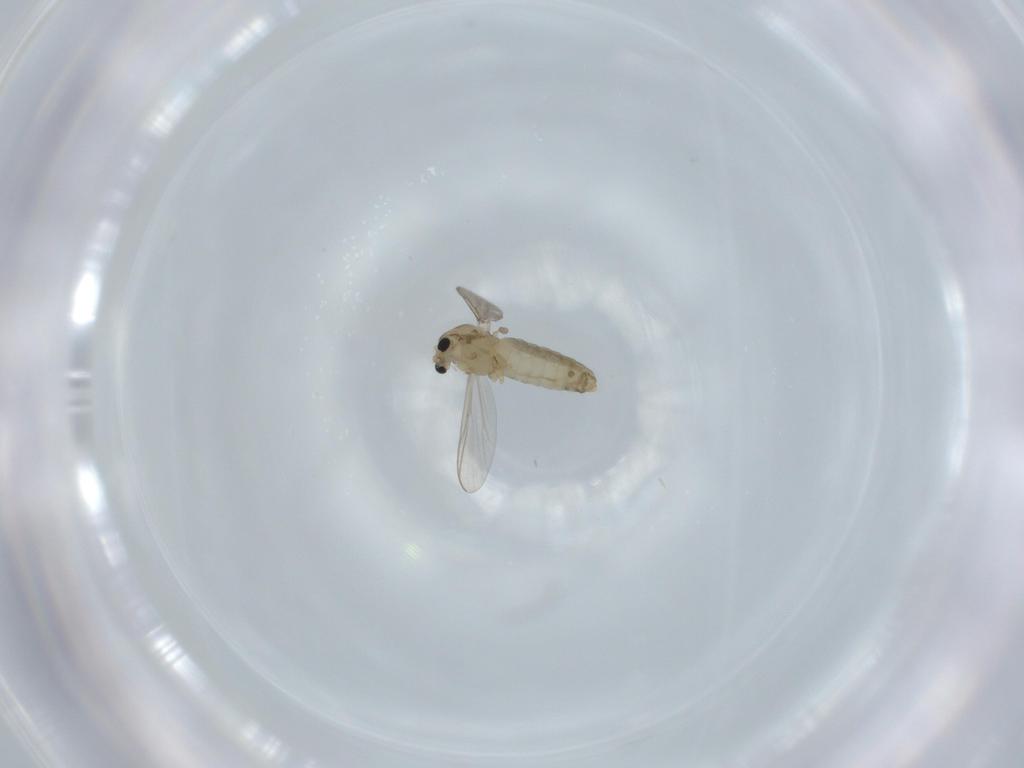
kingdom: Animalia
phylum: Arthropoda
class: Insecta
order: Diptera
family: Chironomidae
